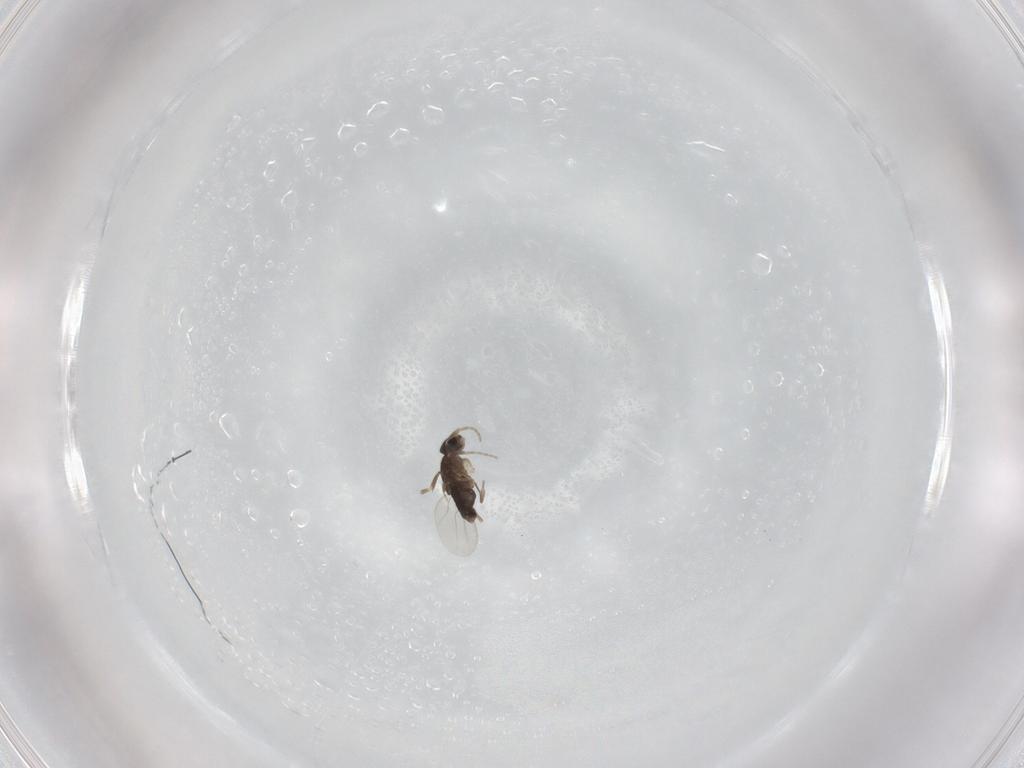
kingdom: Animalia
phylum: Arthropoda
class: Insecta
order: Diptera
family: Phoridae
